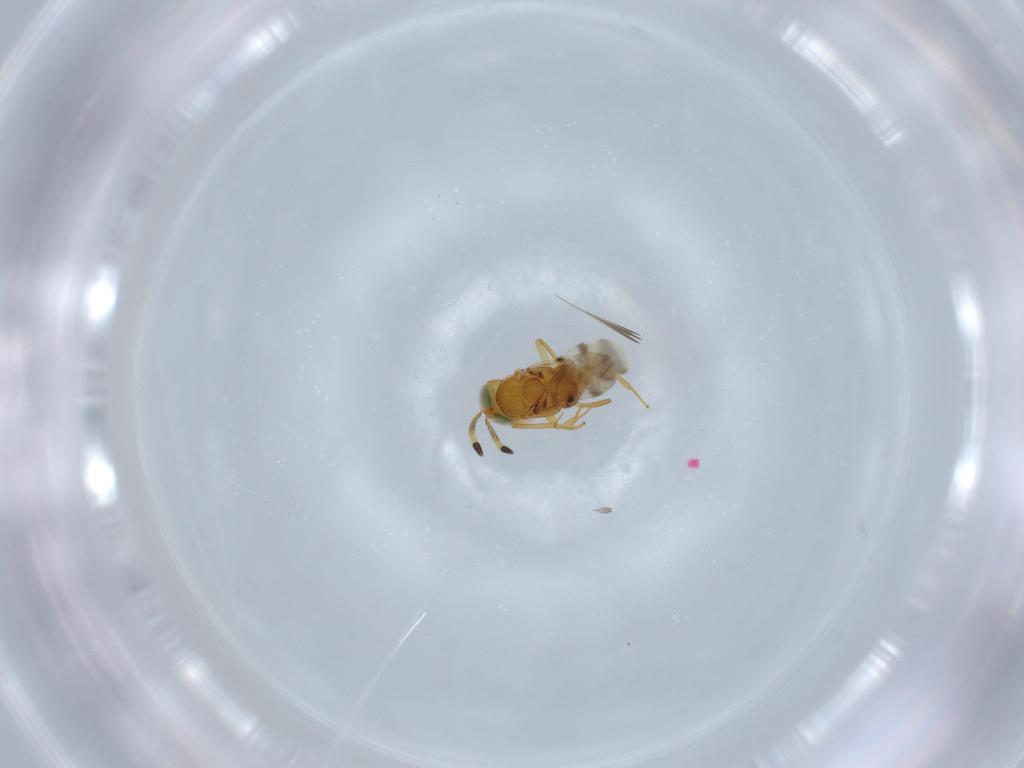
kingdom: Animalia
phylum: Arthropoda
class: Insecta
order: Hymenoptera
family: Encyrtidae
